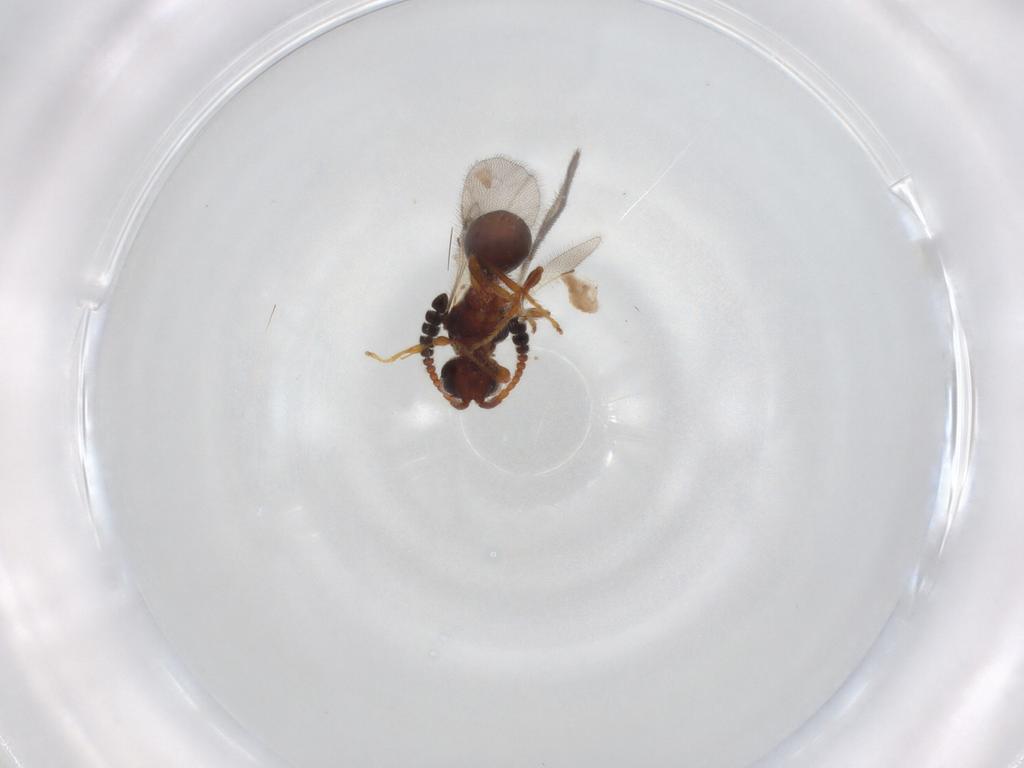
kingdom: Animalia
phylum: Arthropoda
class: Insecta
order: Hymenoptera
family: Diapriidae
